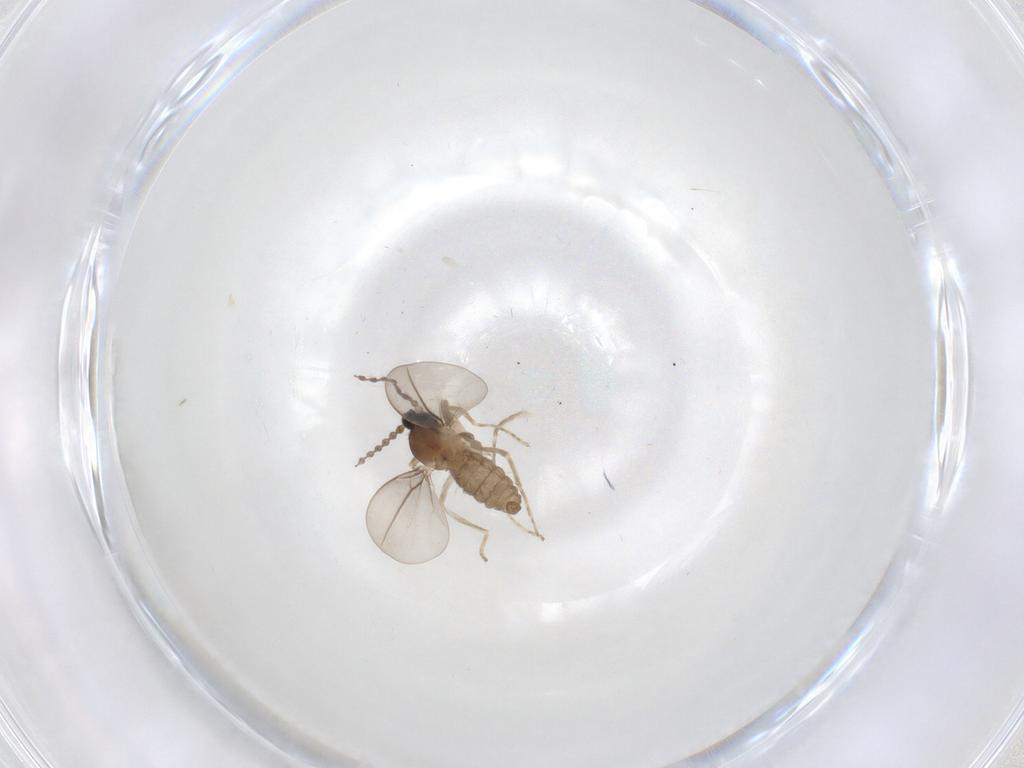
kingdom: Animalia
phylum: Arthropoda
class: Insecta
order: Diptera
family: Cecidomyiidae
